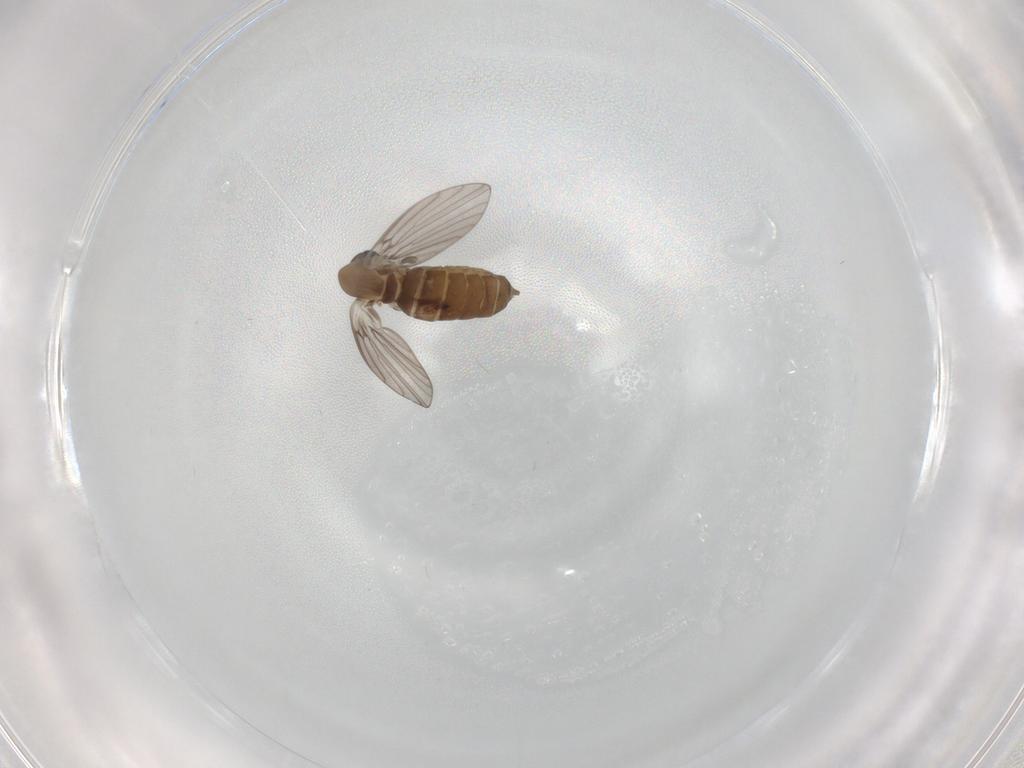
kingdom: Animalia
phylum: Arthropoda
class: Insecta
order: Diptera
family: Psychodidae
